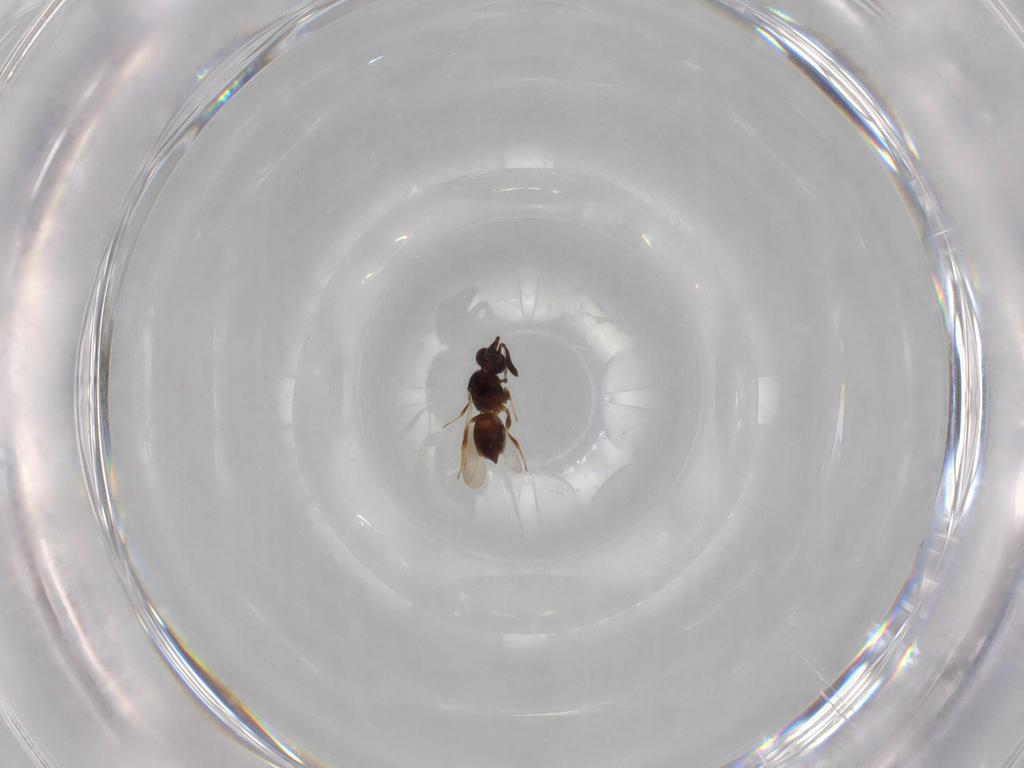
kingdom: Animalia
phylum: Arthropoda
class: Insecta
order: Hymenoptera
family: Ceraphronidae
